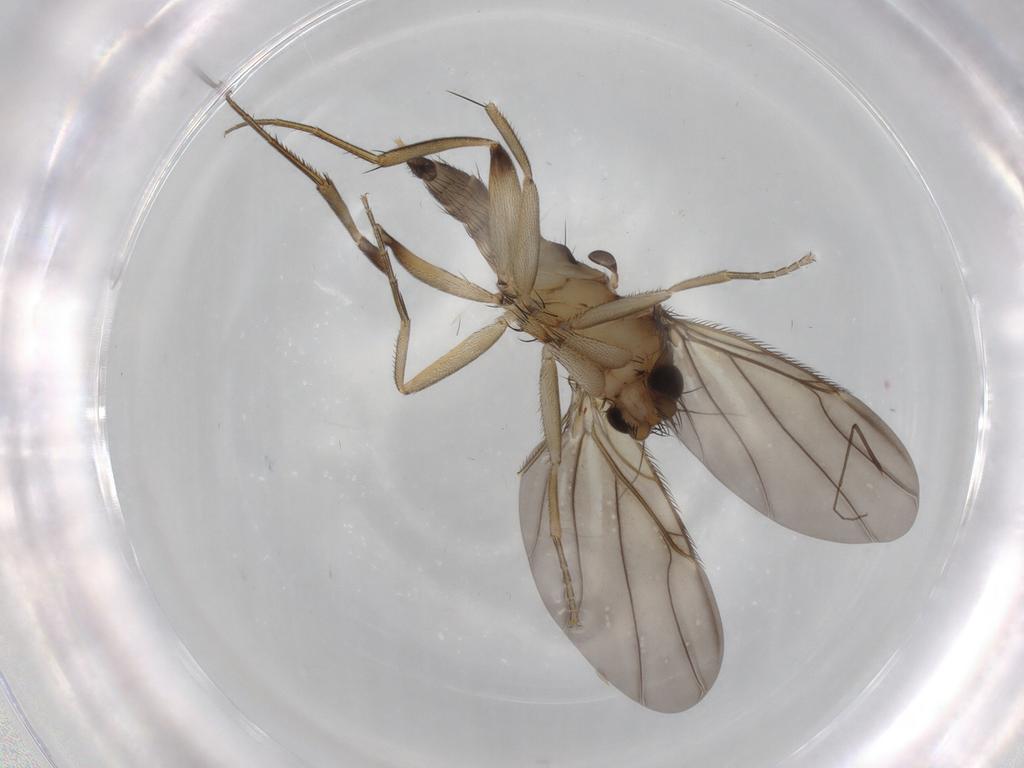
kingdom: Animalia
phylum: Arthropoda
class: Insecta
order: Diptera
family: Phoridae
